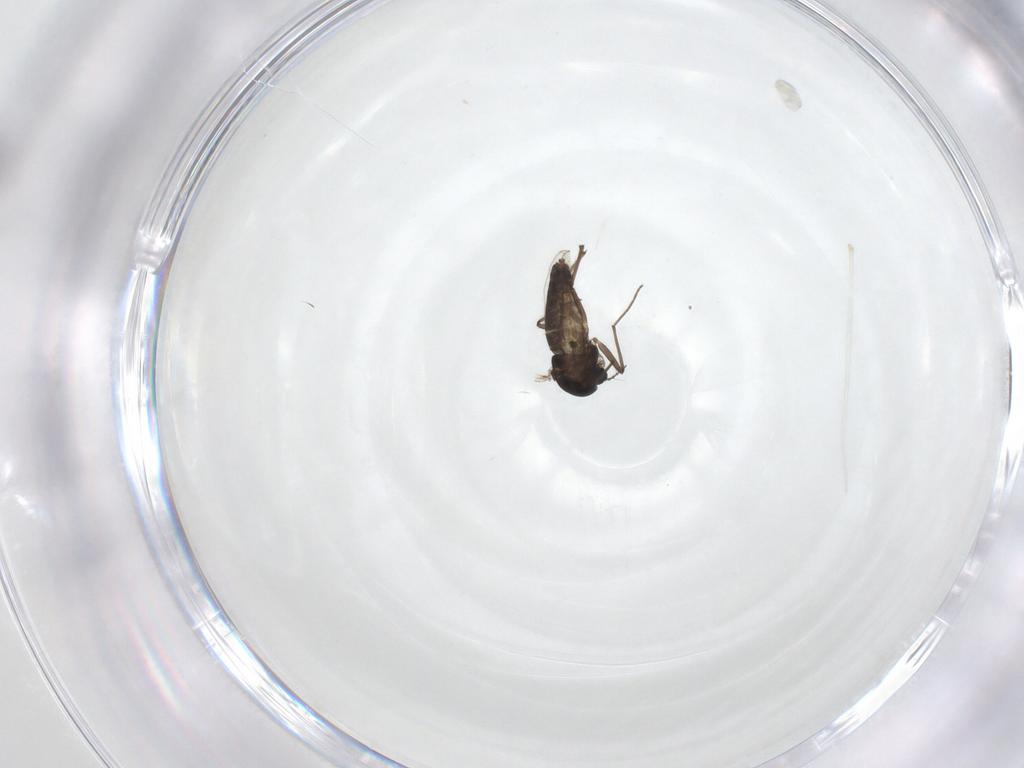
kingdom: Animalia
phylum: Arthropoda
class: Insecta
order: Diptera
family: Chironomidae
